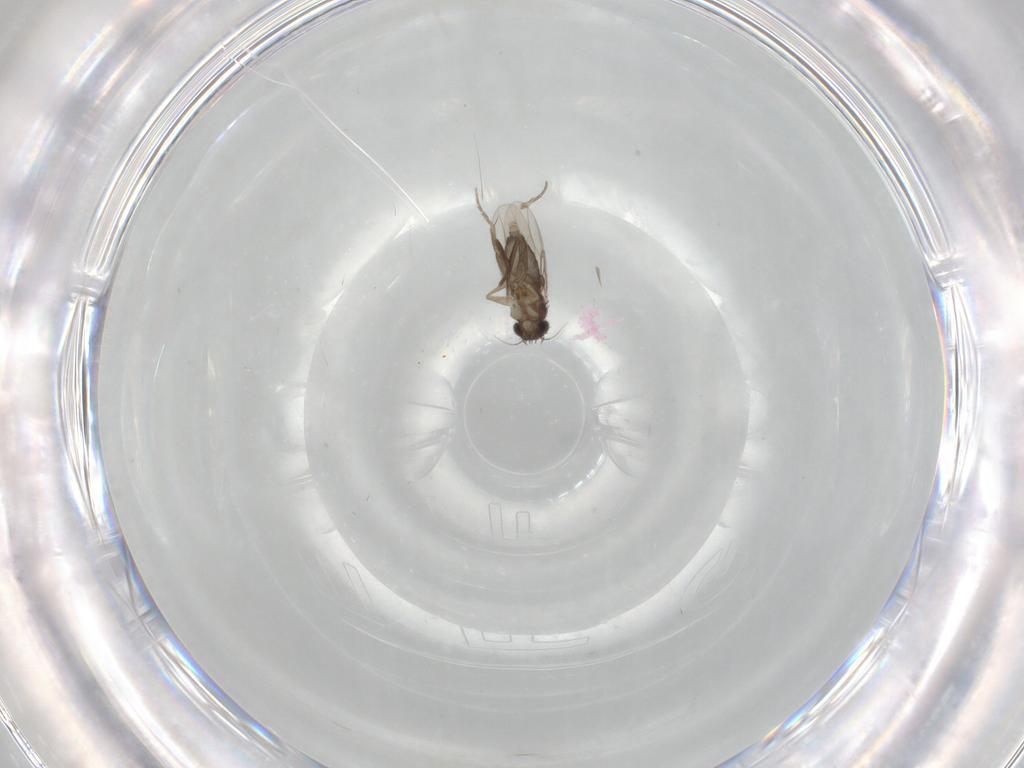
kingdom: Animalia
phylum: Arthropoda
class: Insecta
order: Diptera
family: Phoridae
